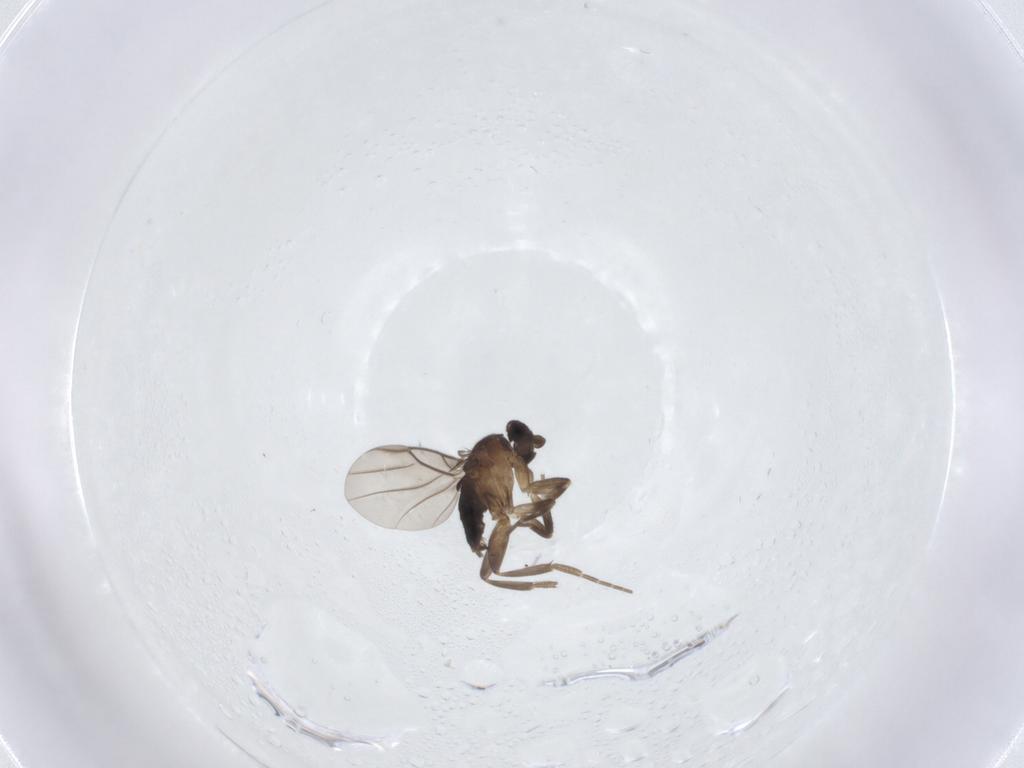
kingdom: Animalia
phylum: Arthropoda
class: Insecta
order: Diptera
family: Phoridae
